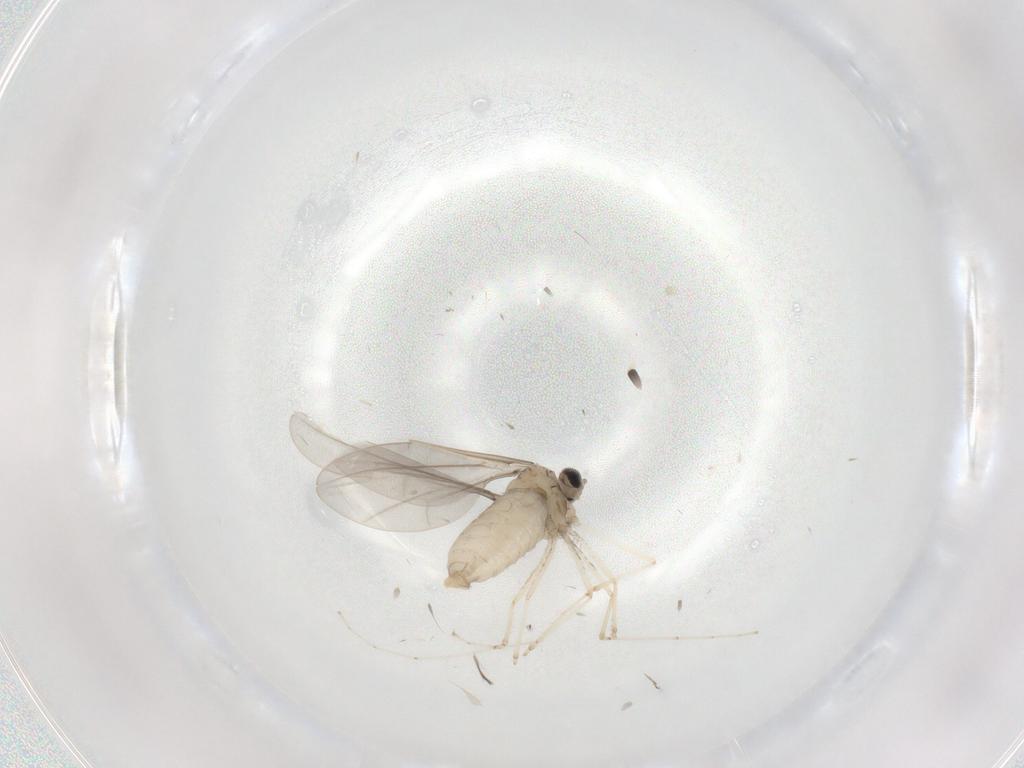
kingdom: Animalia
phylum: Arthropoda
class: Insecta
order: Diptera
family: Cecidomyiidae
